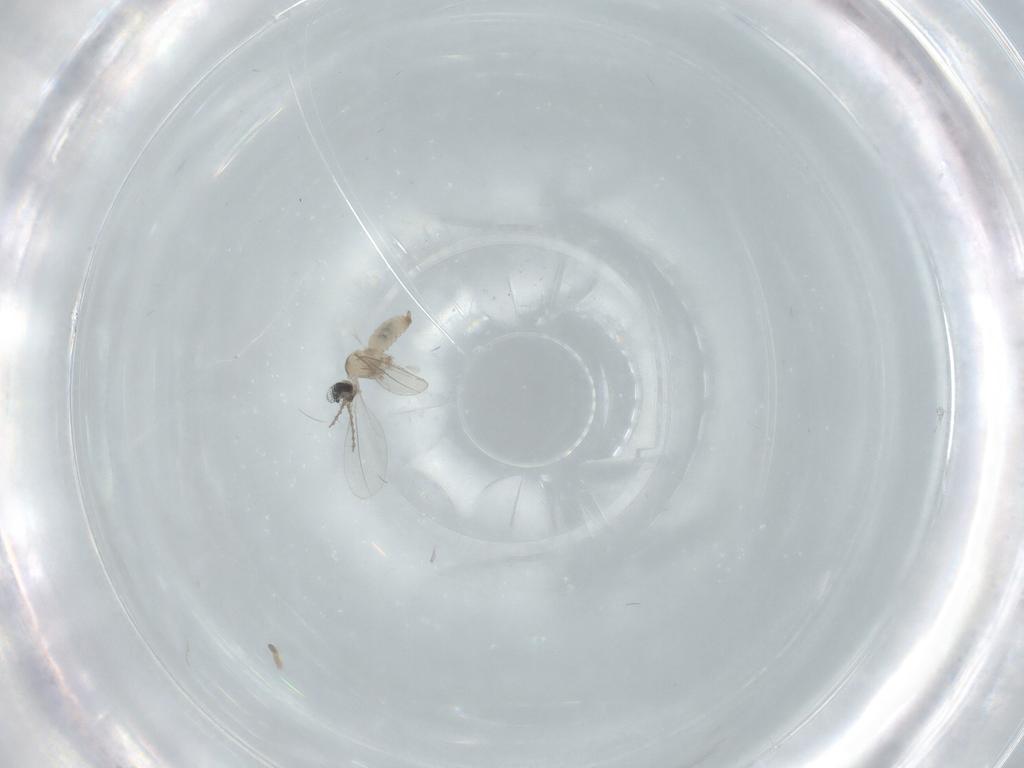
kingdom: Animalia
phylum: Arthropoda
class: Insecta
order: Diptera
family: Cecidomyiidae
